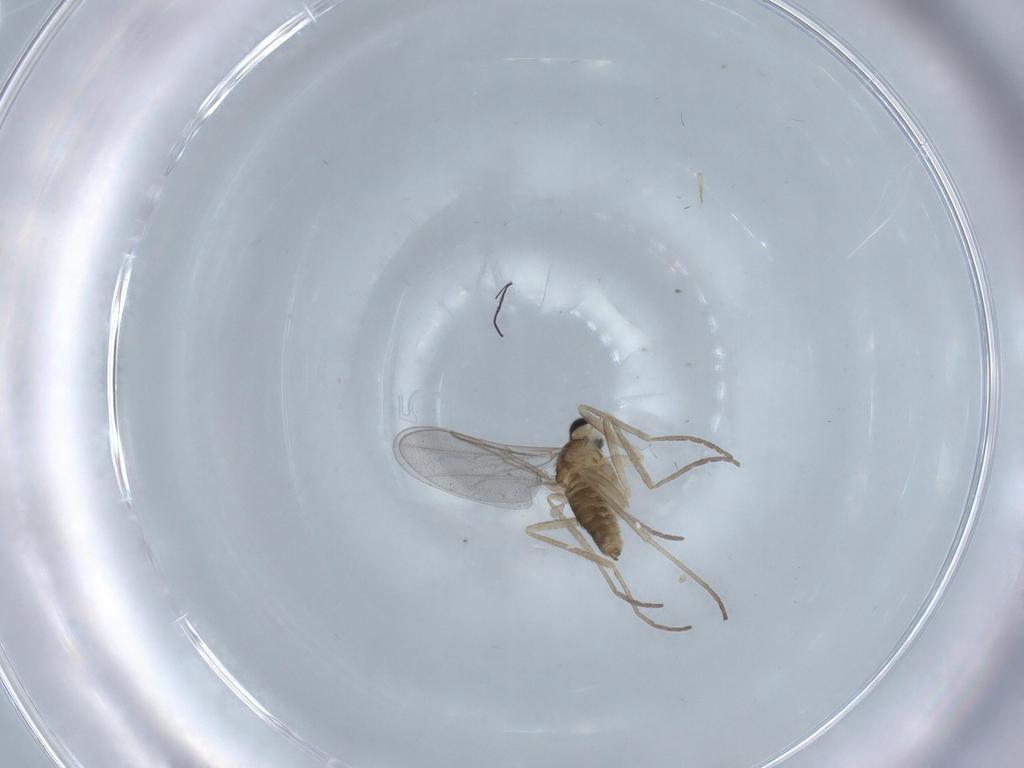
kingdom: Animalia
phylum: Arthropoda
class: Insecta
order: Diptera
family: Cecidomyiidae
